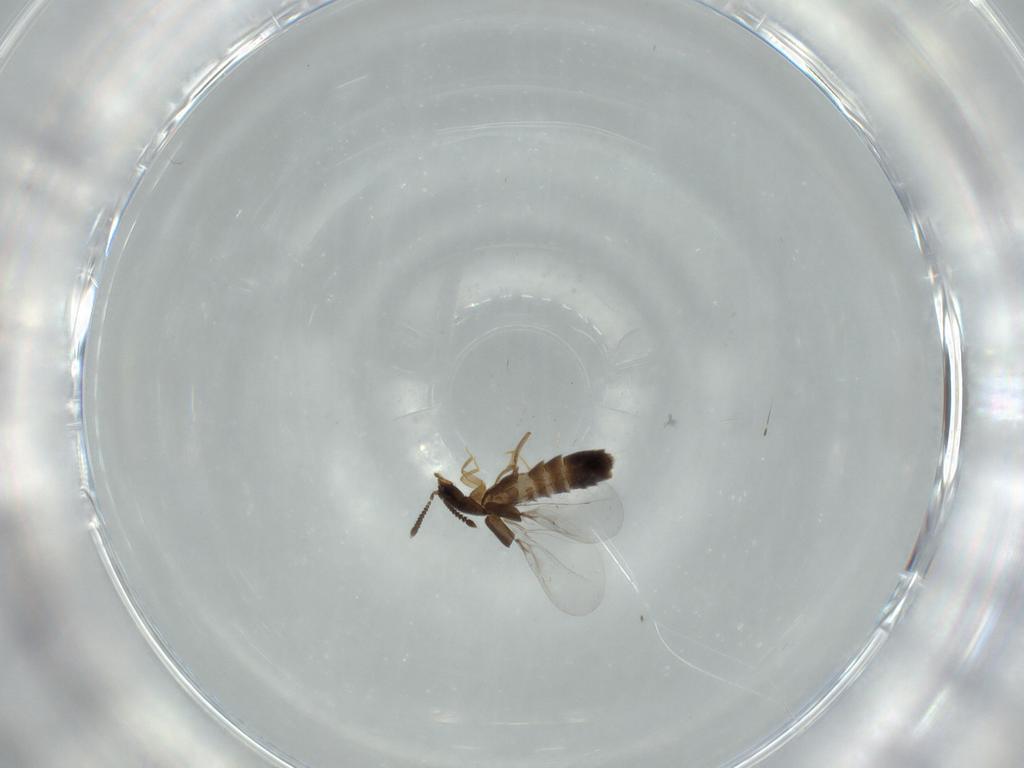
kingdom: Animalia
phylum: Arthropoda
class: Insecta
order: Coleoptera
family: Staphylinidae
